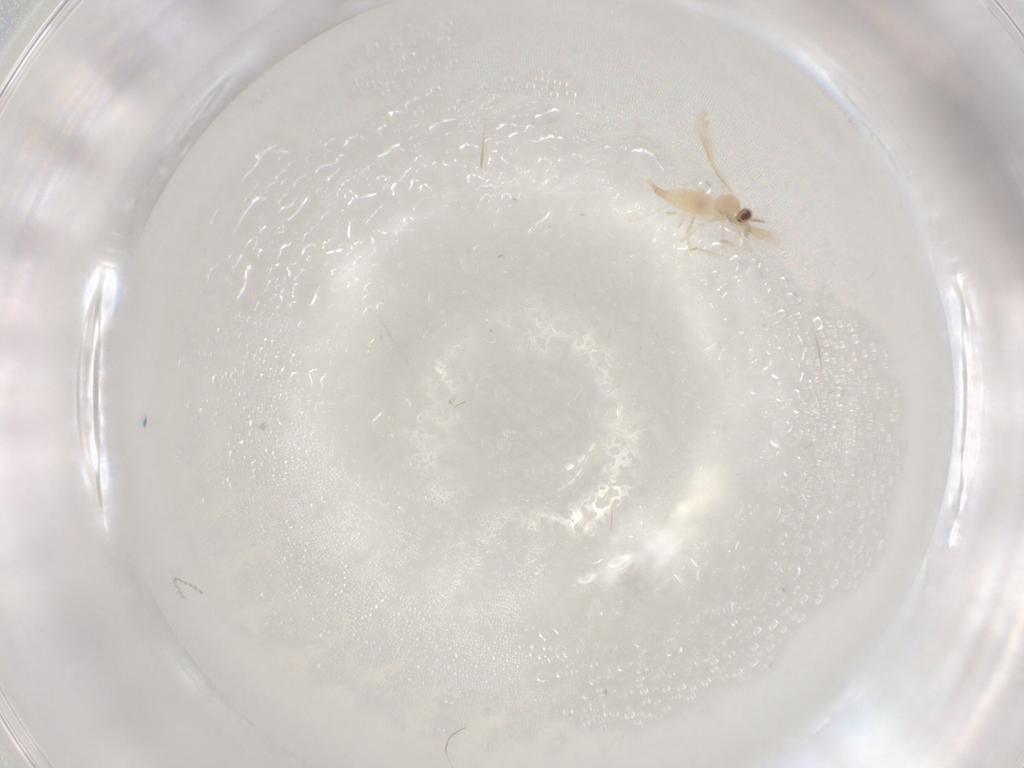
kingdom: Animalia
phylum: Arthropoda
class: Insecta
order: Diptera
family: Cecidomyiidae
